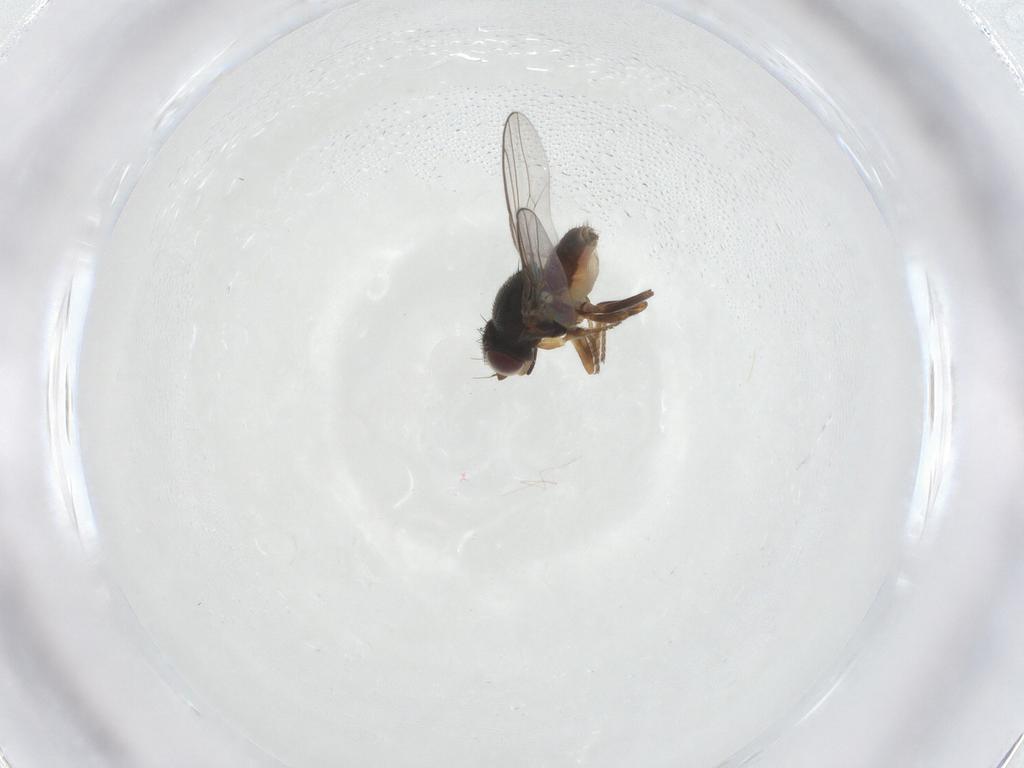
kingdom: Animalia
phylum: Arthropoda
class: Insecta
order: Diptera
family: Chloropidae
